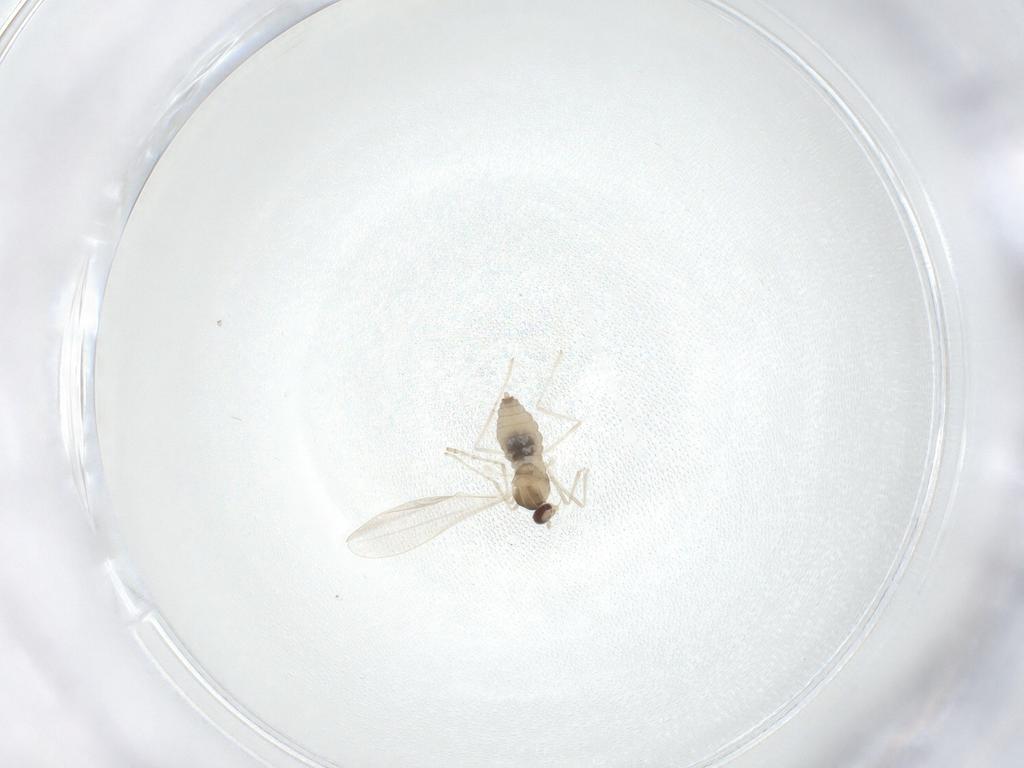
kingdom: Animalia
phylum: Arthropoda
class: Insecta
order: Diptera
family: Cecidomyiidae
